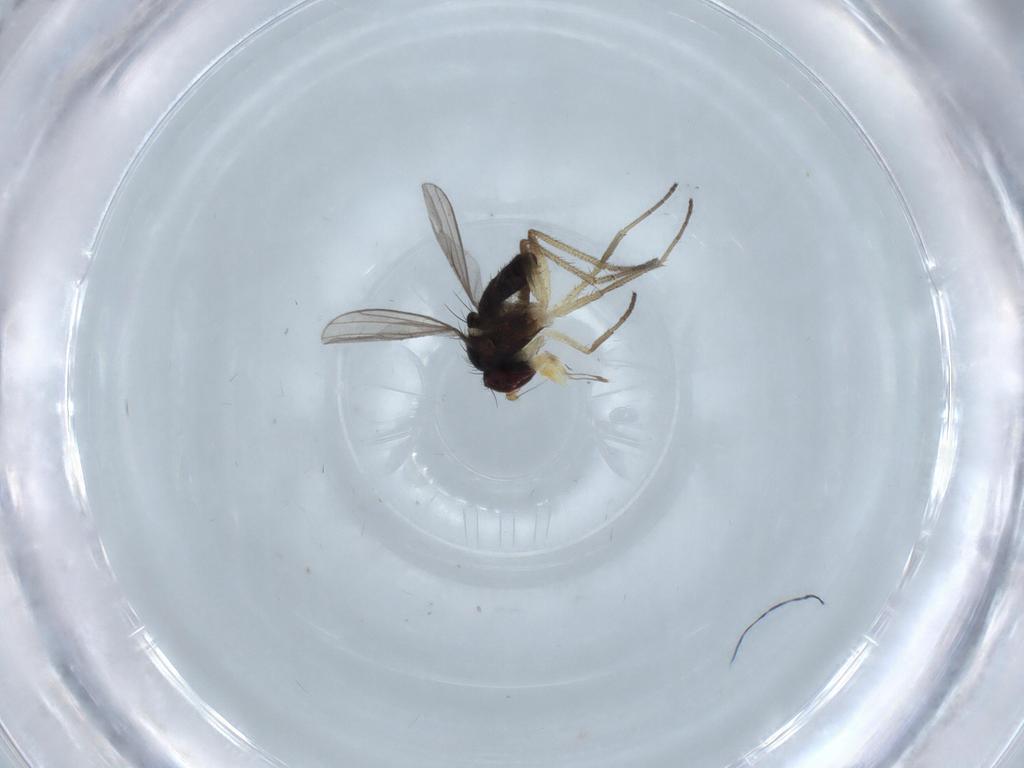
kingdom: Animalia
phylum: Arthropoda
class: Insecta
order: Diptera
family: Dolichopodidae
